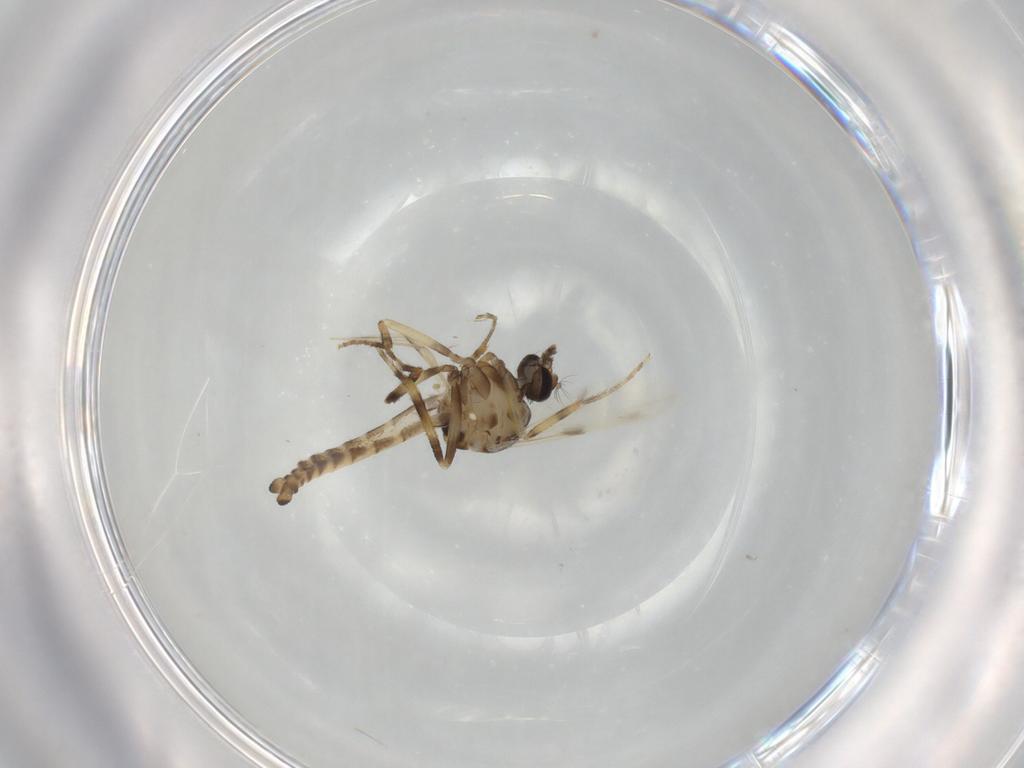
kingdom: Animalia
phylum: Arthropoda
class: Insecta
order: Diptera
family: Ceratopogonidae
